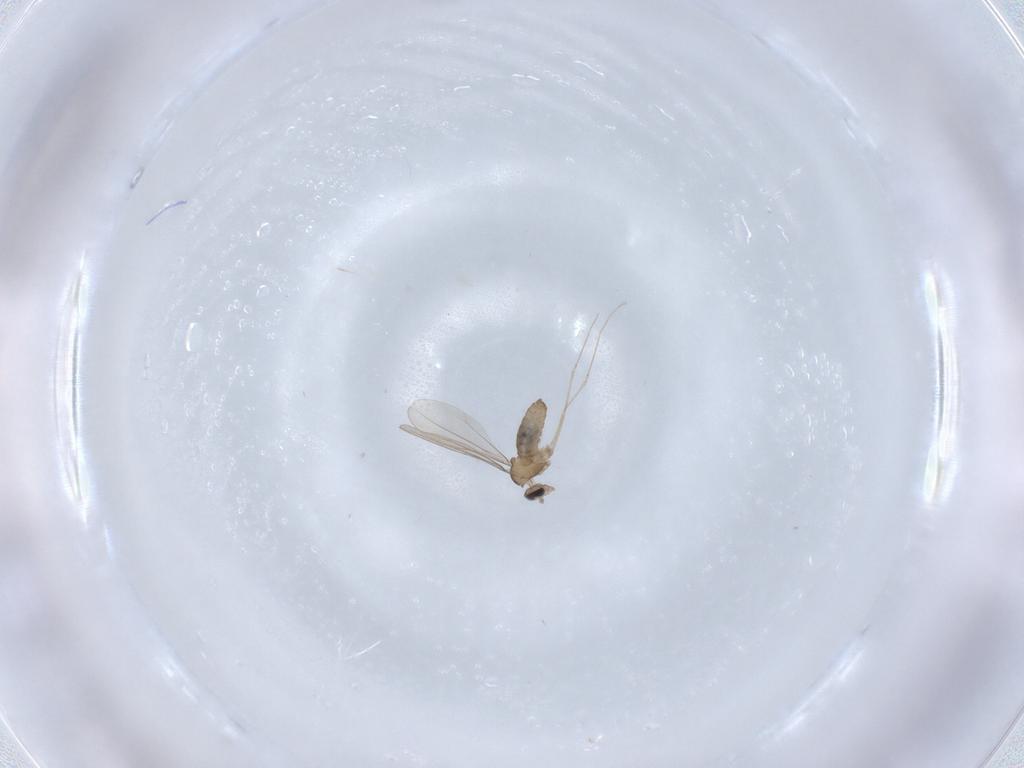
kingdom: Animalia
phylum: Arthropoda
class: Insecta
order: Diptera
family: Cecidomyiidae
